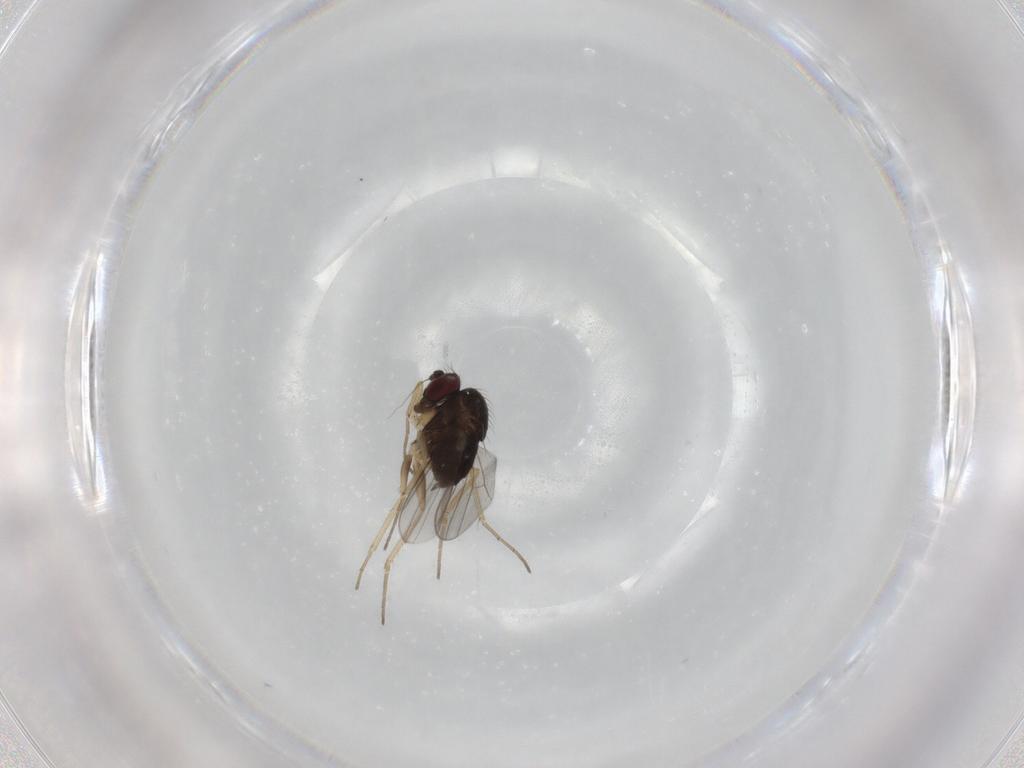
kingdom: Animalia
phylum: Arthropoda
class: Insecta
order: Diptera
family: Dolichopodidae
